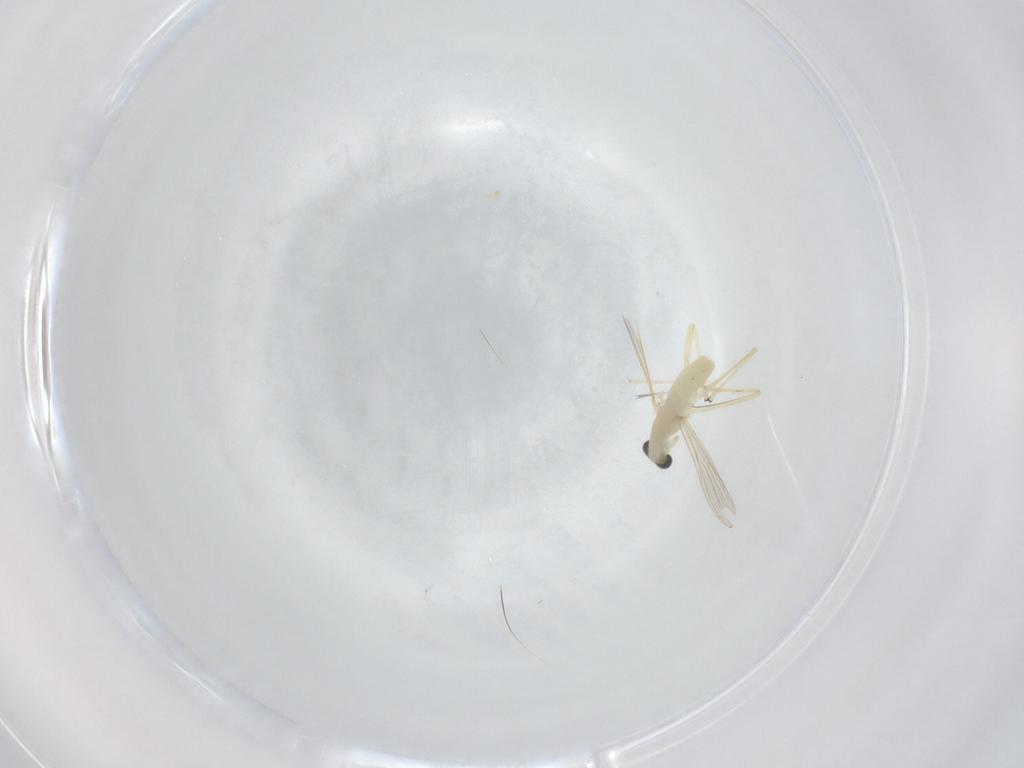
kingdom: Animalia
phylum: Arthropoda
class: Insecta
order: Diptera
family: Chironomidae
